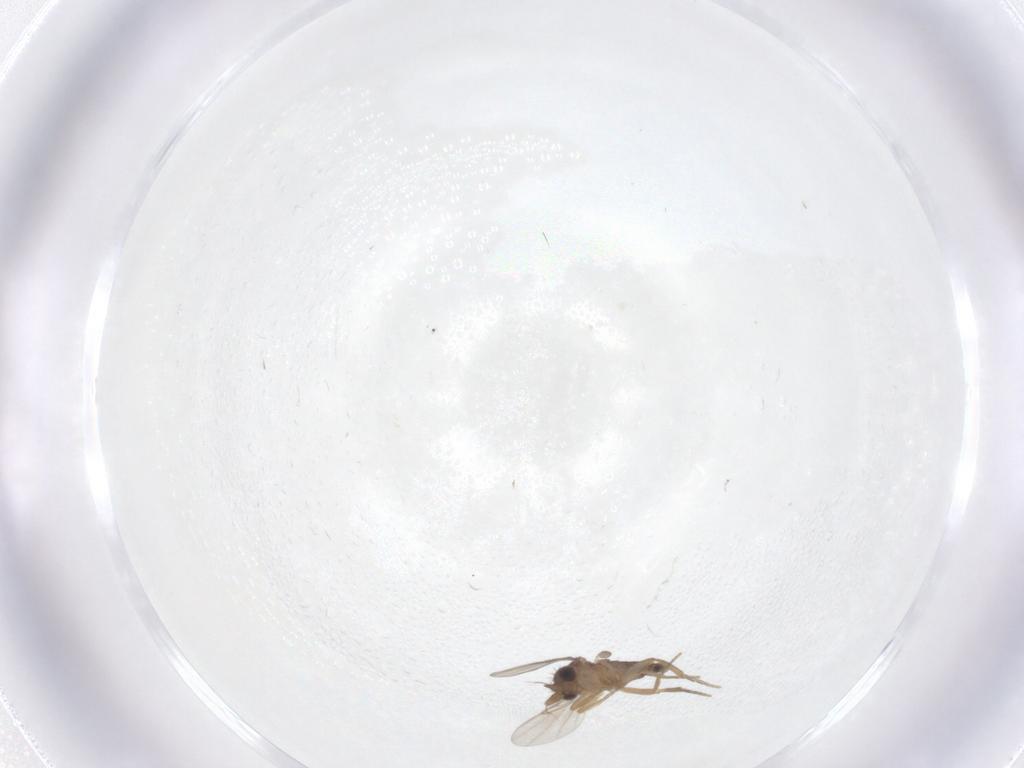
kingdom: Animalia
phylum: Arthropoda
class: Insecta
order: Diptera
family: Phoridae
